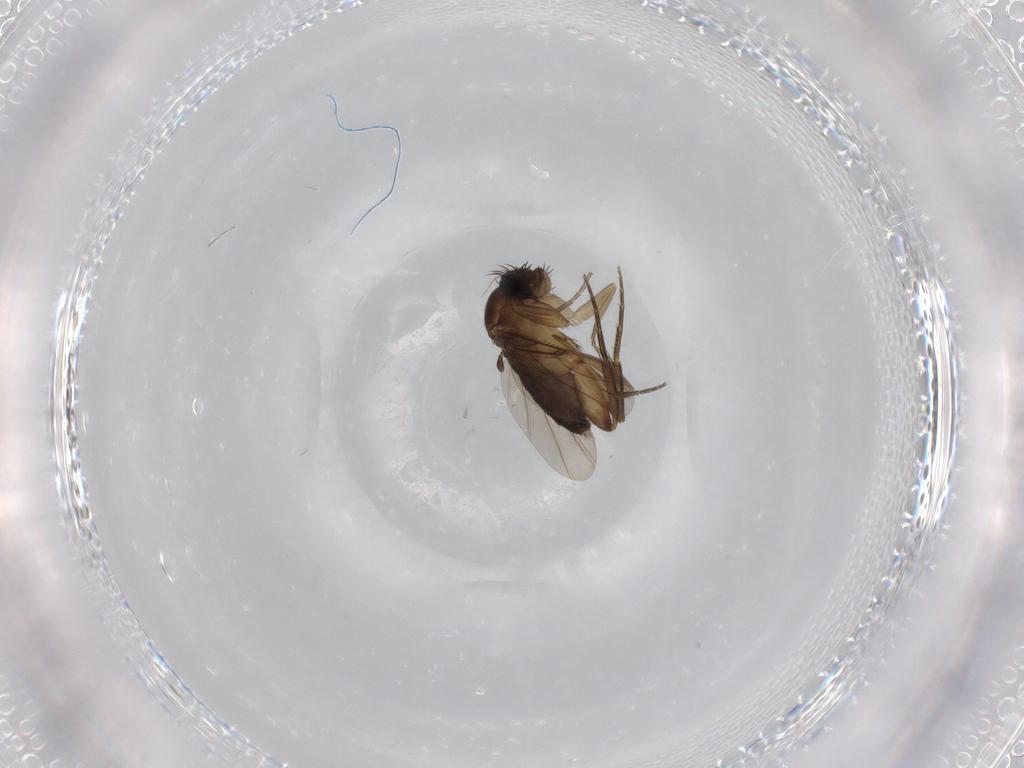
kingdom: Animalia
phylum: Arthropoda
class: Insecta
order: Diptera
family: Phoridae
